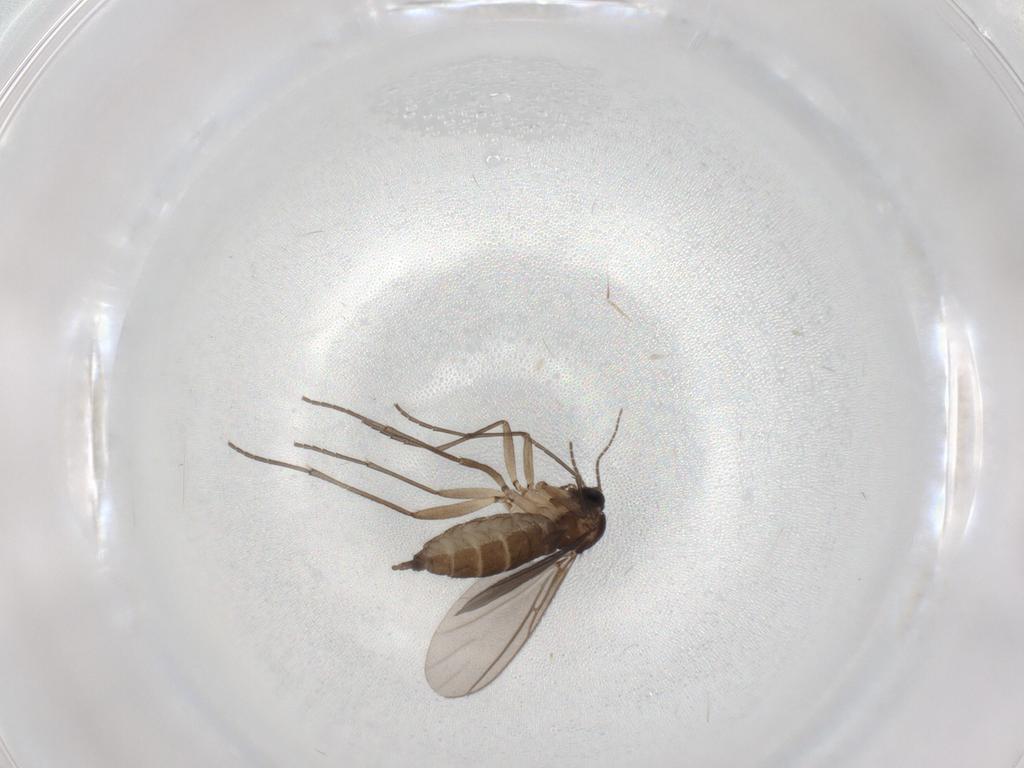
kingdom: Animalia
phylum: Arthropoda
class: Insecta
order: Diptera
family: Sciaridae
